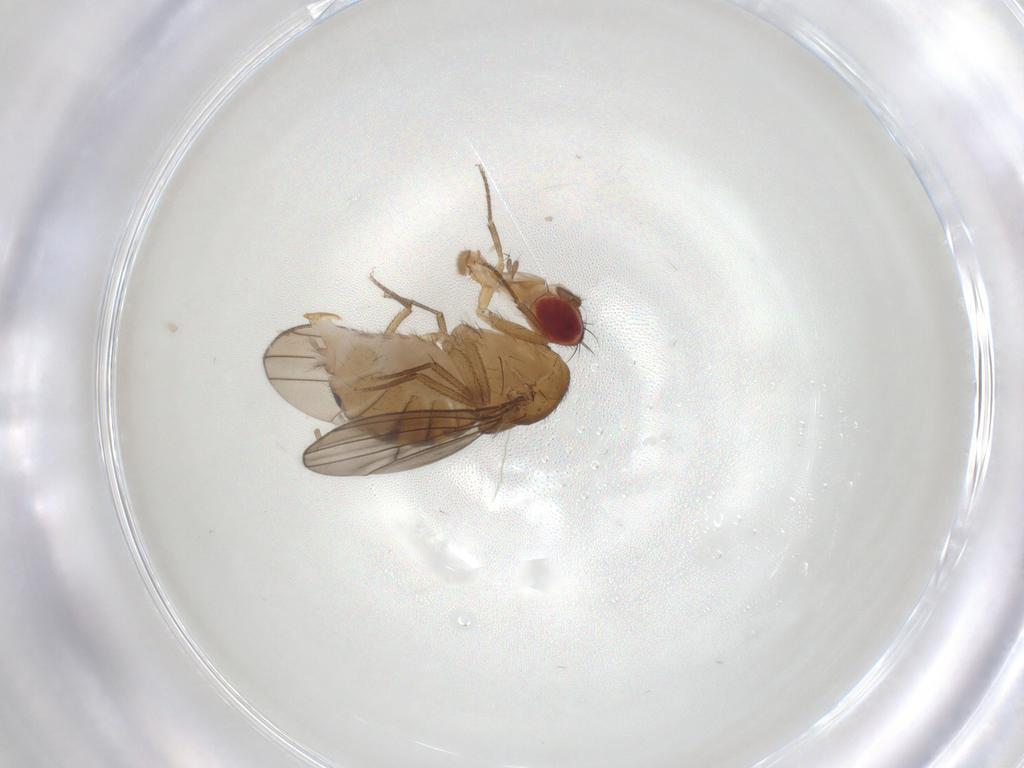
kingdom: Animalia
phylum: Arthropoda
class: Insecta
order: Diptera
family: Drosophilidae
